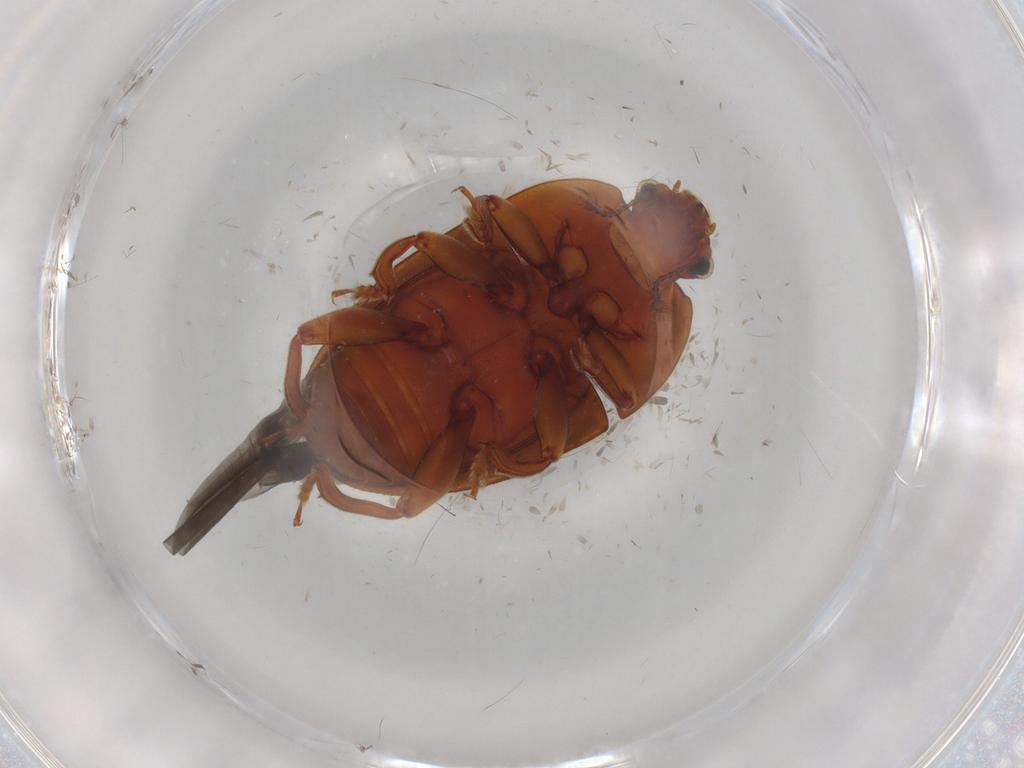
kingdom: Animalia
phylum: Arthropoda
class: Insecta
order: Coleoptera
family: Nitidulidae
